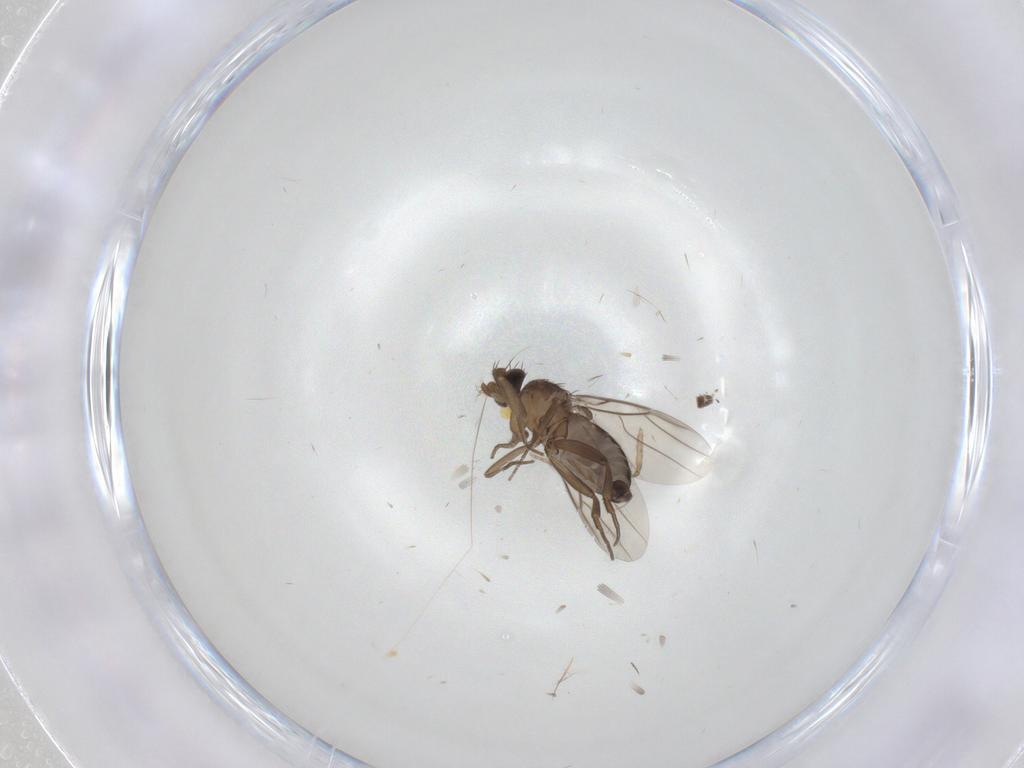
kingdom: Animalia
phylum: Arthropoda
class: Insecta
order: Diptera
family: Phoridae
